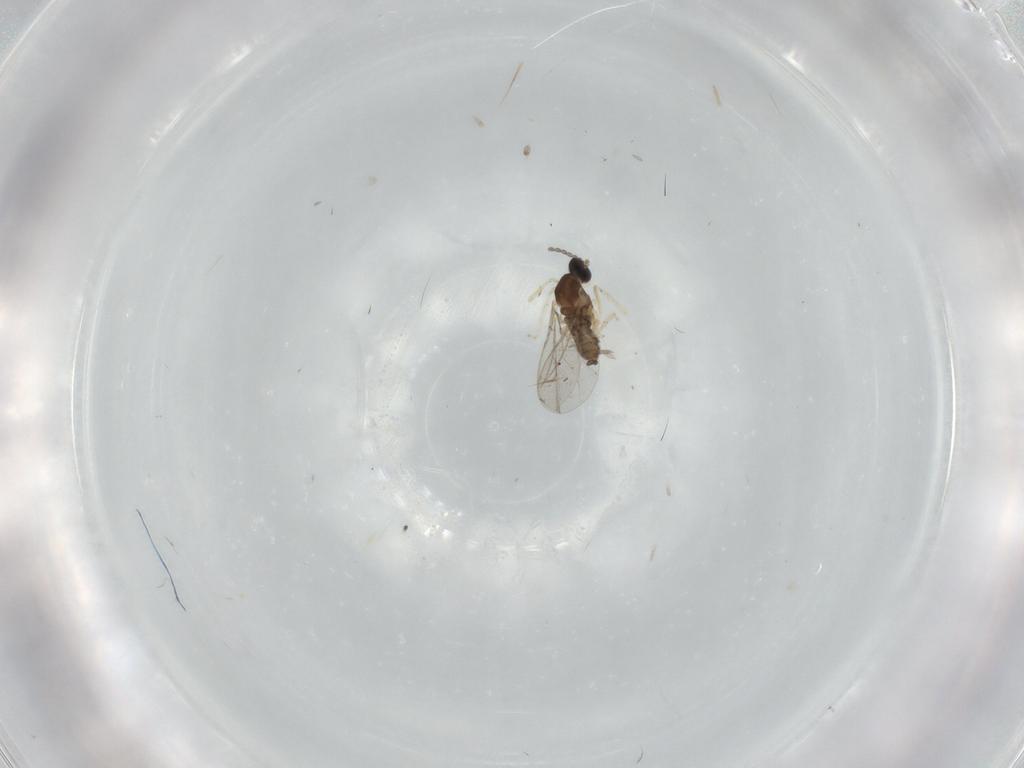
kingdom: Animalia
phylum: Arthropoda
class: Insecta
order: Diptera
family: Cecidomyiidae
